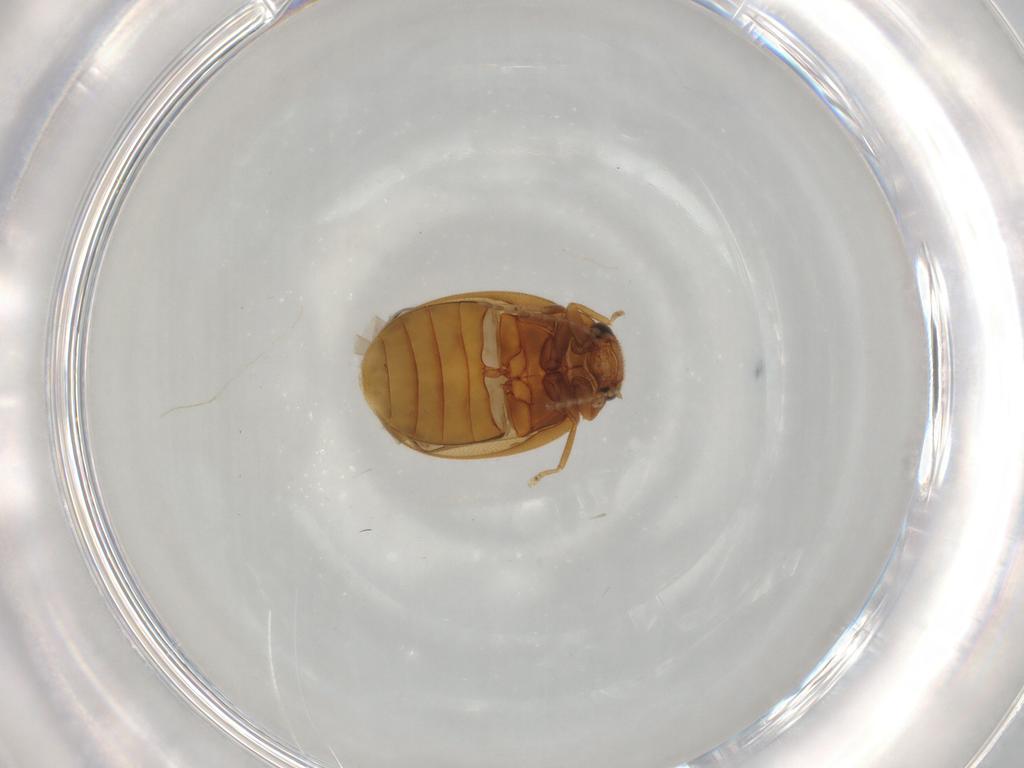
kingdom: Animalia
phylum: Arthropoda
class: Insecta
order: Coleoptera
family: Scirtidae
